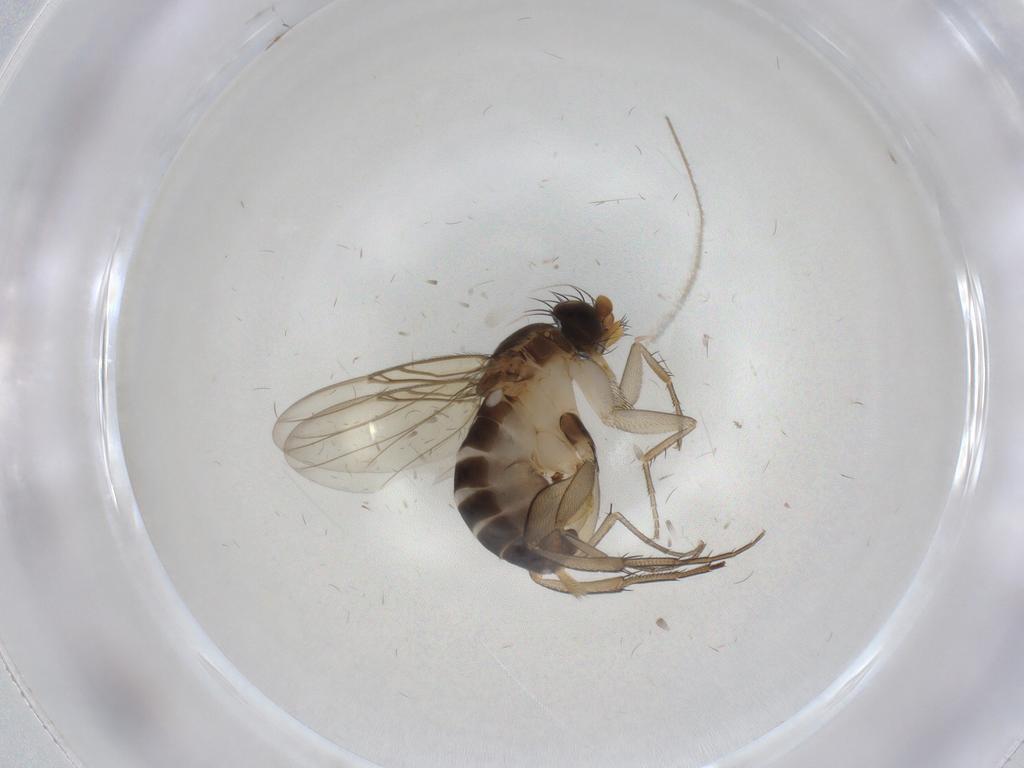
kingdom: Animalia
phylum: Arthropoda
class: Insecta
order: Diptera
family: Phoridae
